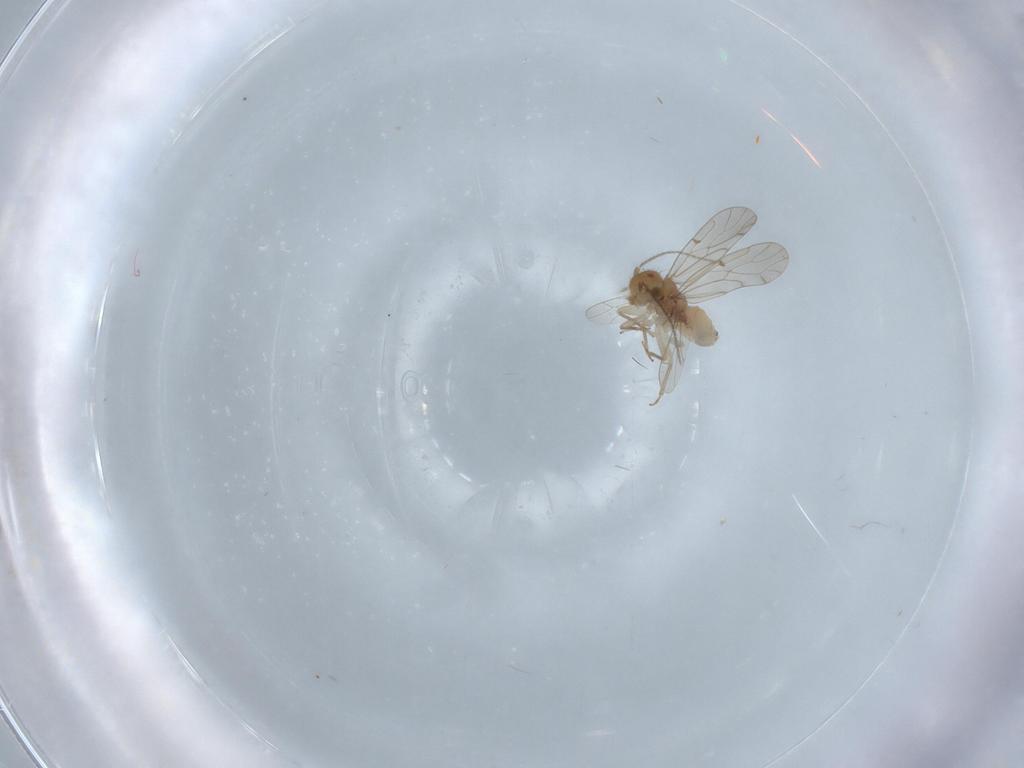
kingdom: Animalia
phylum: Arthropoda
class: Insecta
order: Psocodea
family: Ectopsocidae
